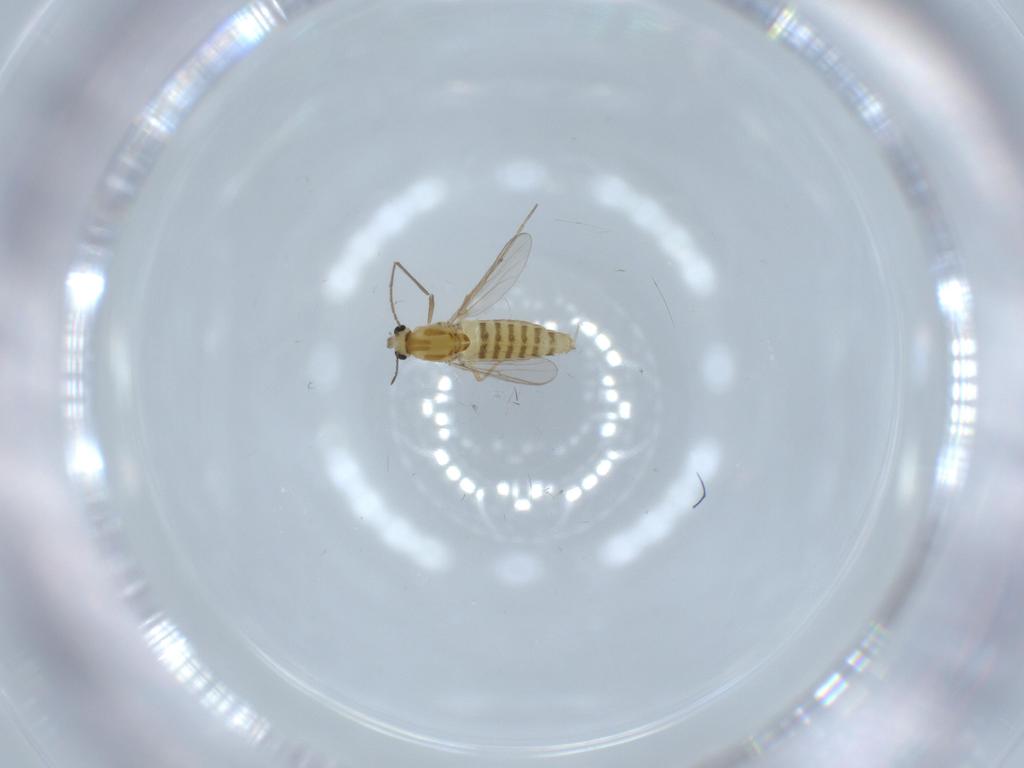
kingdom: Animalia
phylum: Arthropoda
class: Insecta
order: Diptera
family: Chironomidae
